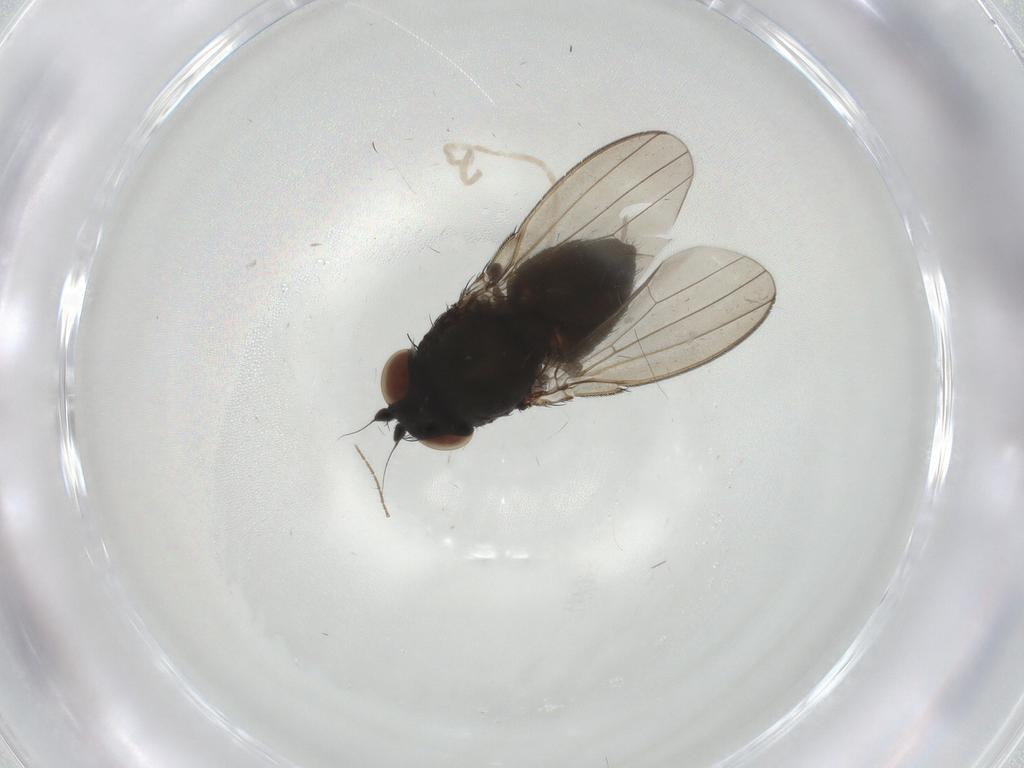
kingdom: Animalia
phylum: Arthropoda
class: Insecta
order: Diptera
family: Milichiidae
